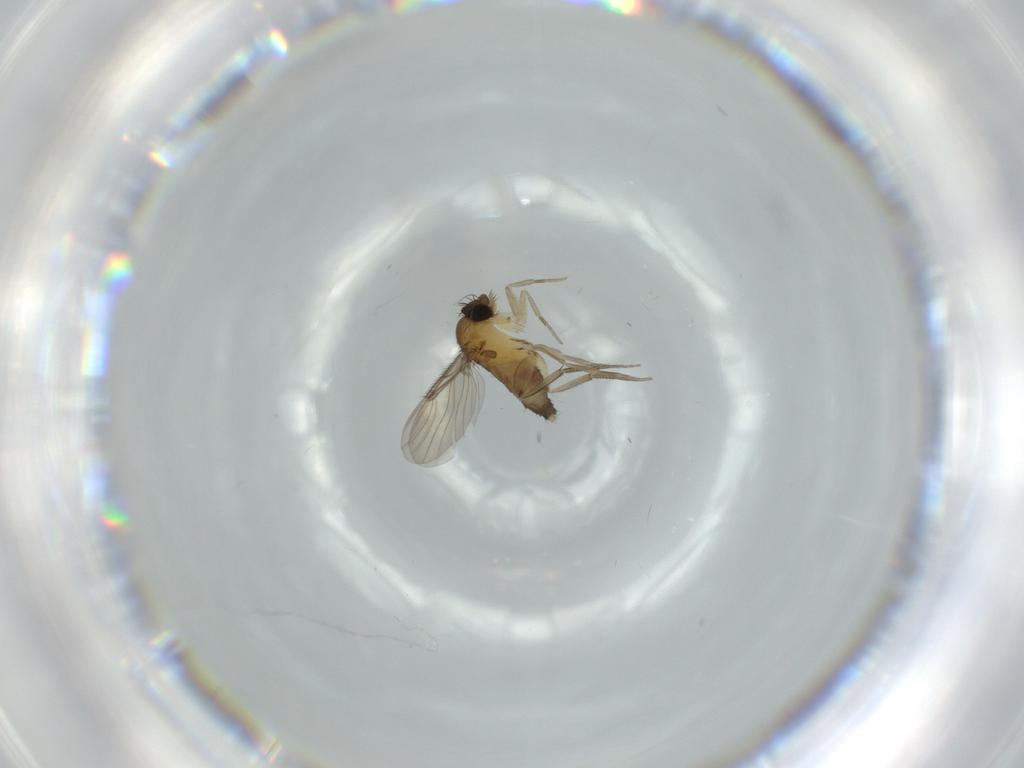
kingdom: Animalia
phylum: Arthropoda
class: Insecta
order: Diptera
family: Phoridae
